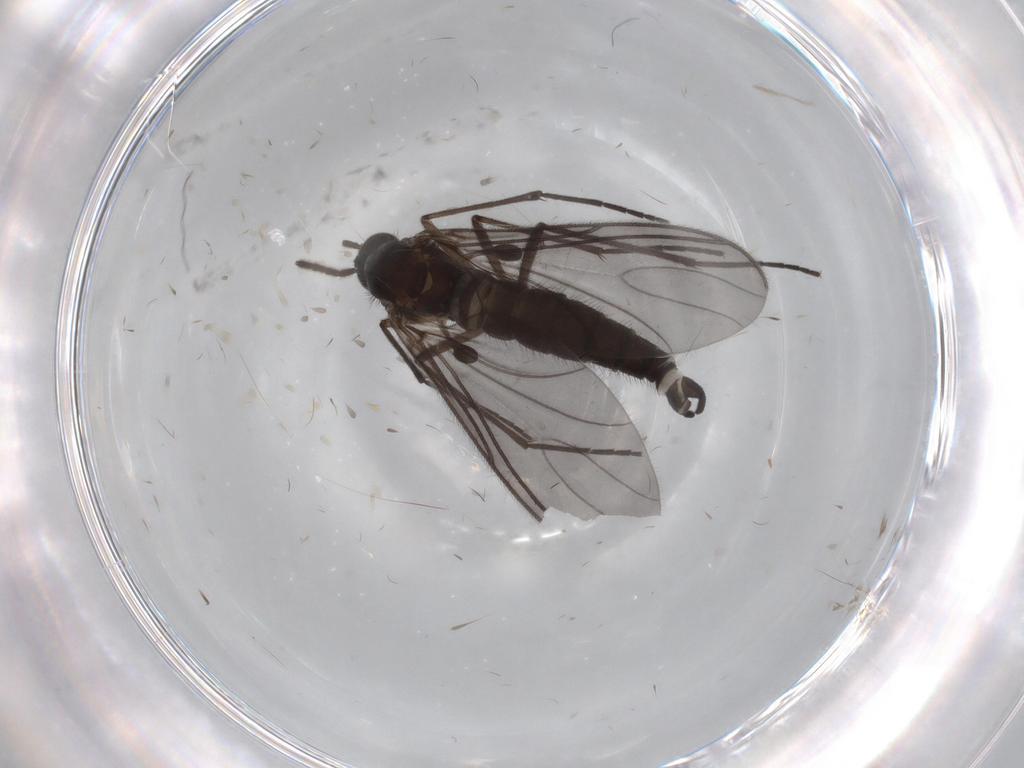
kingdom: Animalia
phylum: Arthropoda
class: Insecta
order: Diptera
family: Sciaridae
